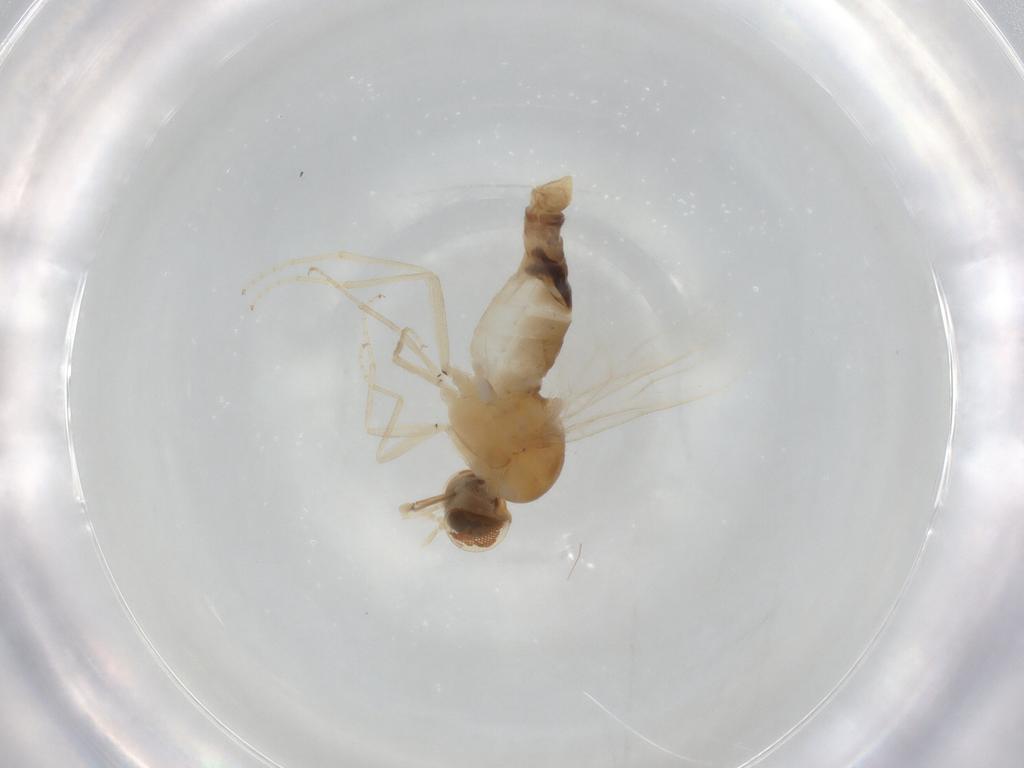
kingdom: Animalia
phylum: Arthropoda
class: Insecta
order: Diptera
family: Scenopinidae
